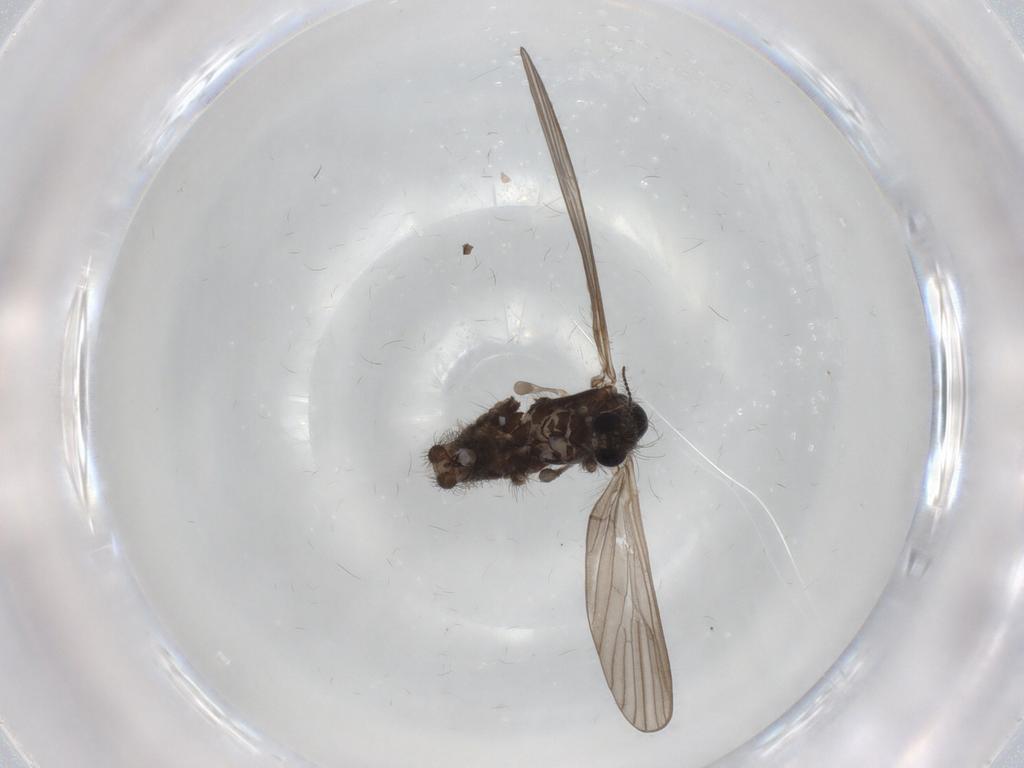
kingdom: Animalia
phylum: Arthropoda
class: Insecta
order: Diptera
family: Limoniidae
